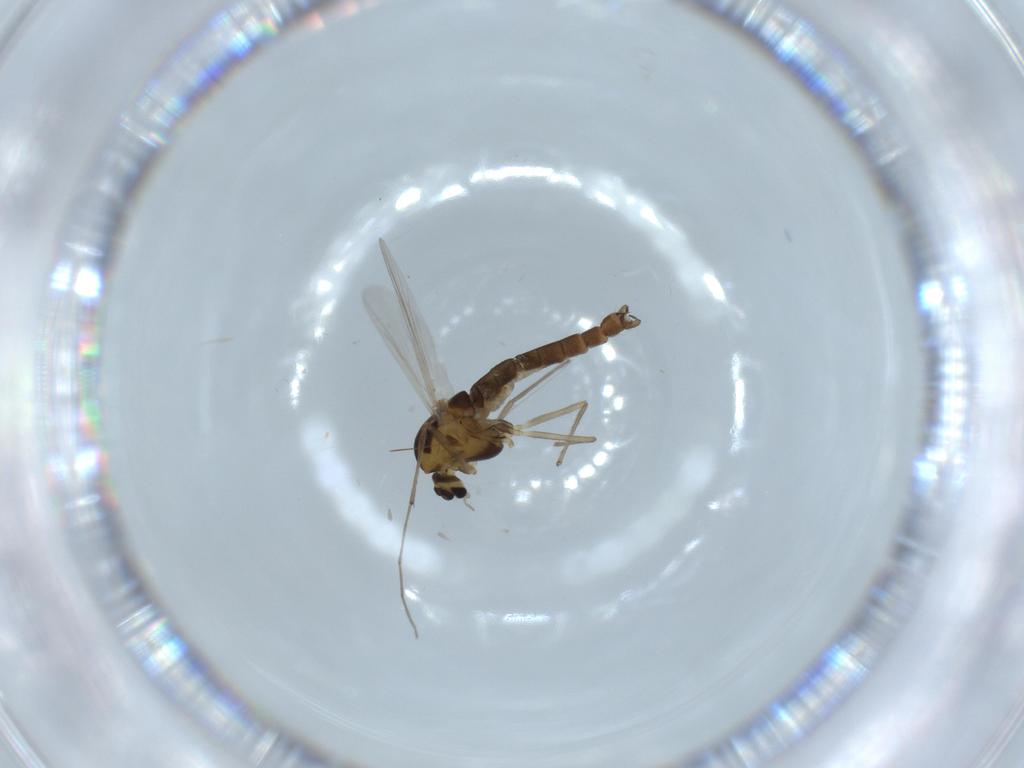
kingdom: Animalia
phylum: Arthropoda
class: Insecta
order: Diptera
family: Chironomidae
